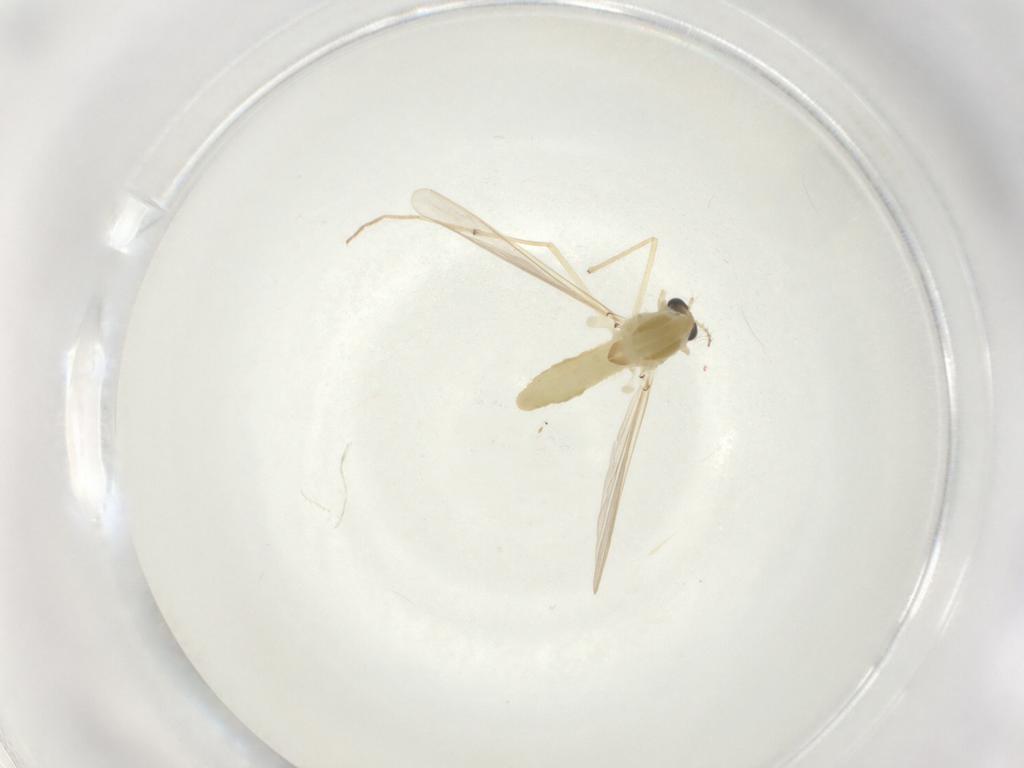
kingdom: Animalia
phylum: Arthropoda
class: Insecta
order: Diptera
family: Chironomidae
